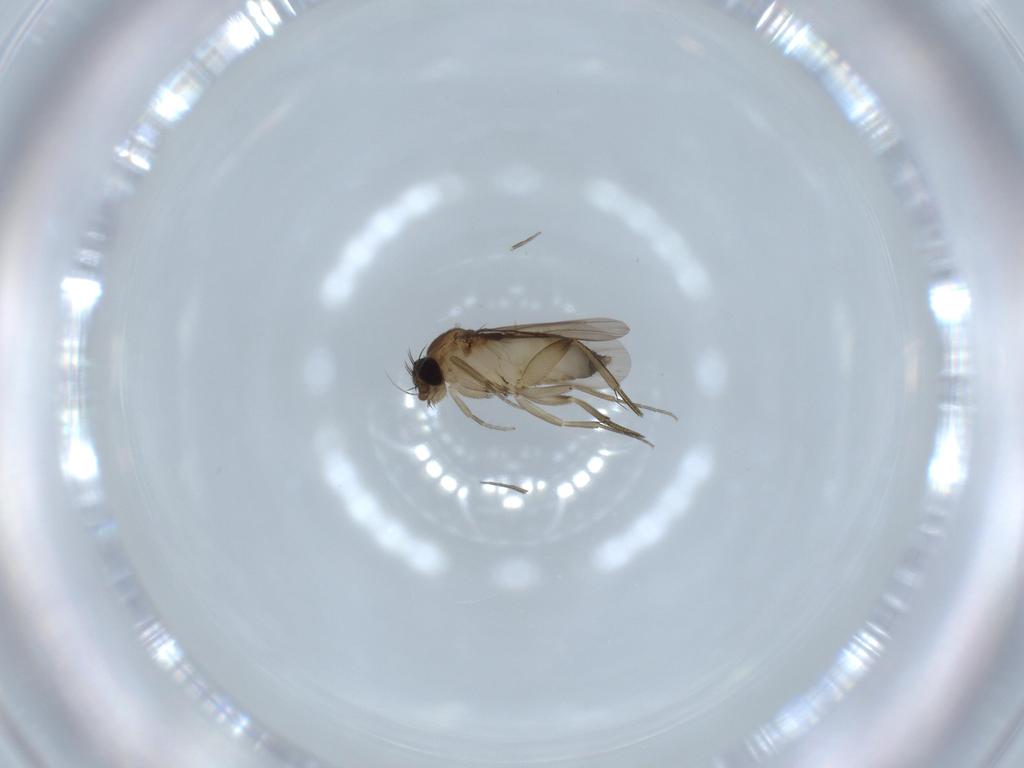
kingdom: Animalia
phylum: Arthropoda
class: Insecta
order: Diptera
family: Phoridae
